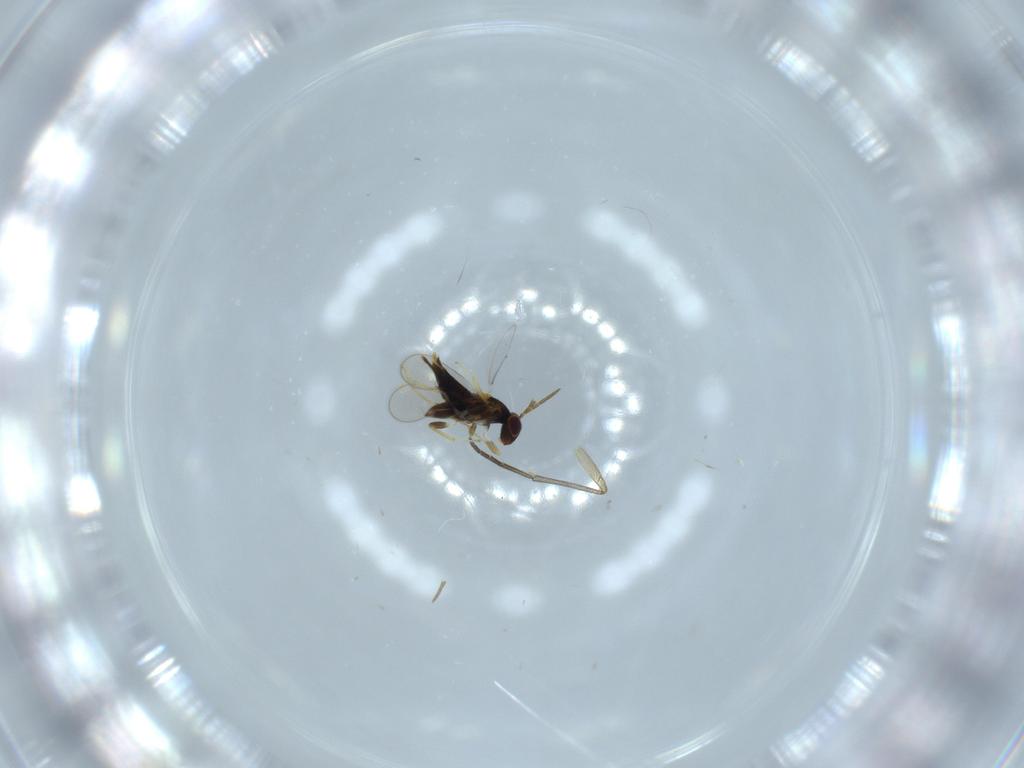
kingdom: Animalia
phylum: Arthropoda
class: Insecta
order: Diptera
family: Sciaridae
